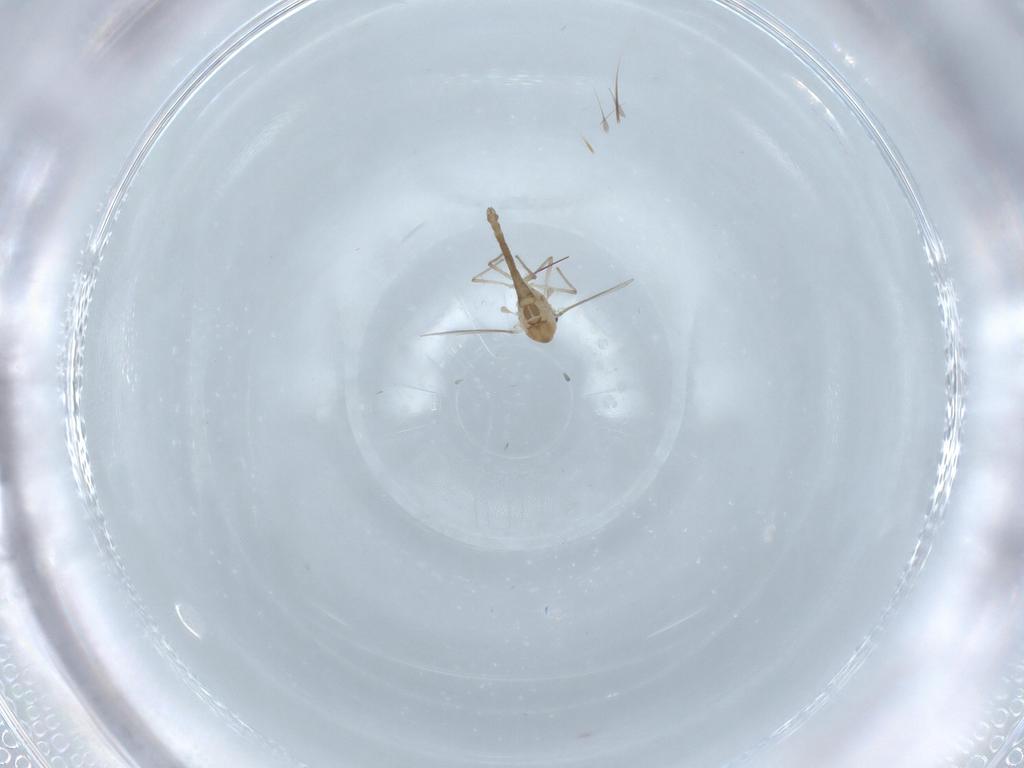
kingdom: Animalia
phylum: Arthropoda
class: Insecta
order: Diptera
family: Chironomidae
